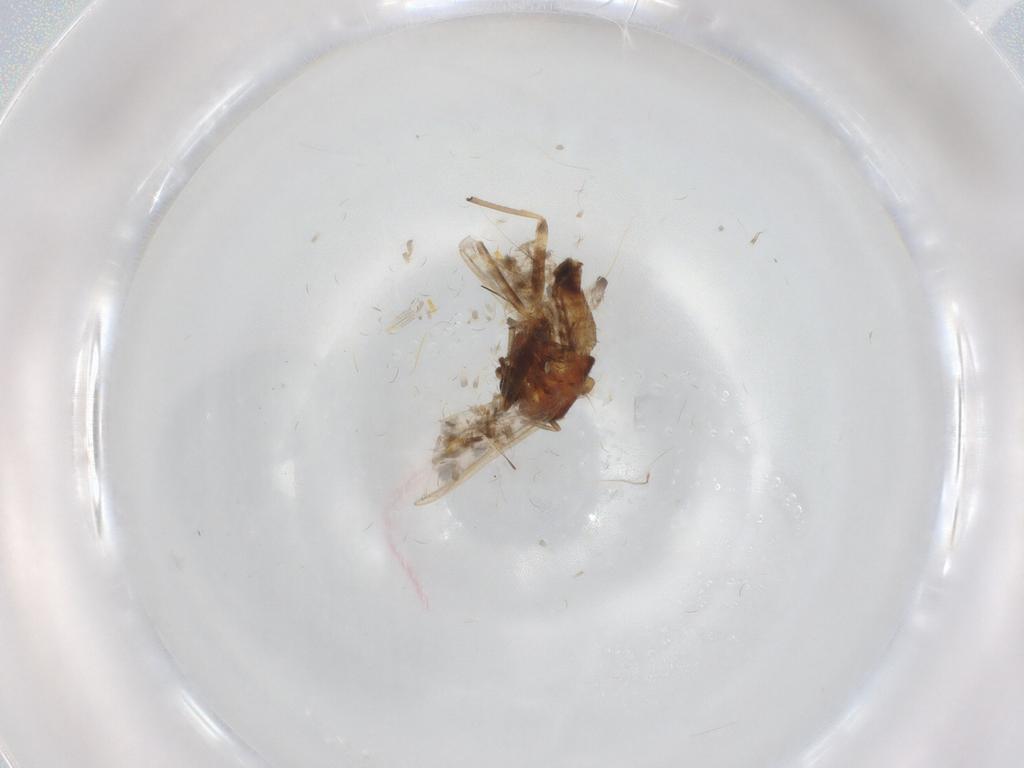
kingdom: Animalia
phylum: Arthropoda
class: Insecta
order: Diptera
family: Chironomidae
